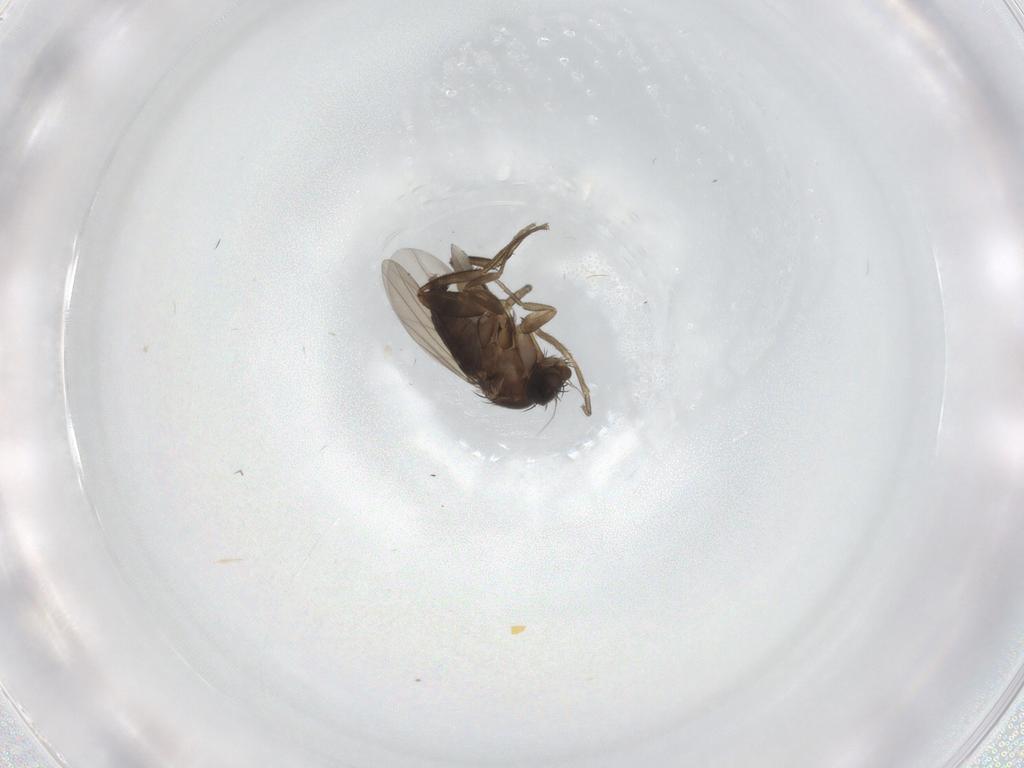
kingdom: Animalia
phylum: Arthropoda
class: Insecta
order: Diptera
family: Phoridae
